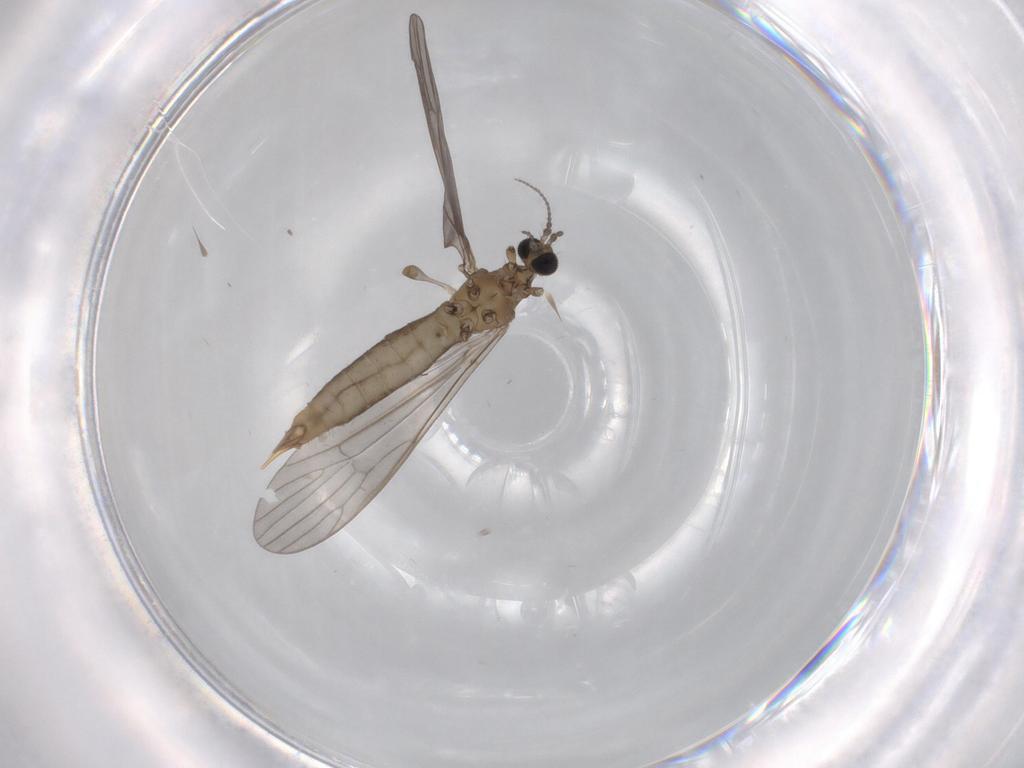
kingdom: Animalia
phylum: Arthropoda
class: Insecta
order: Diptera
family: Limoniidae
